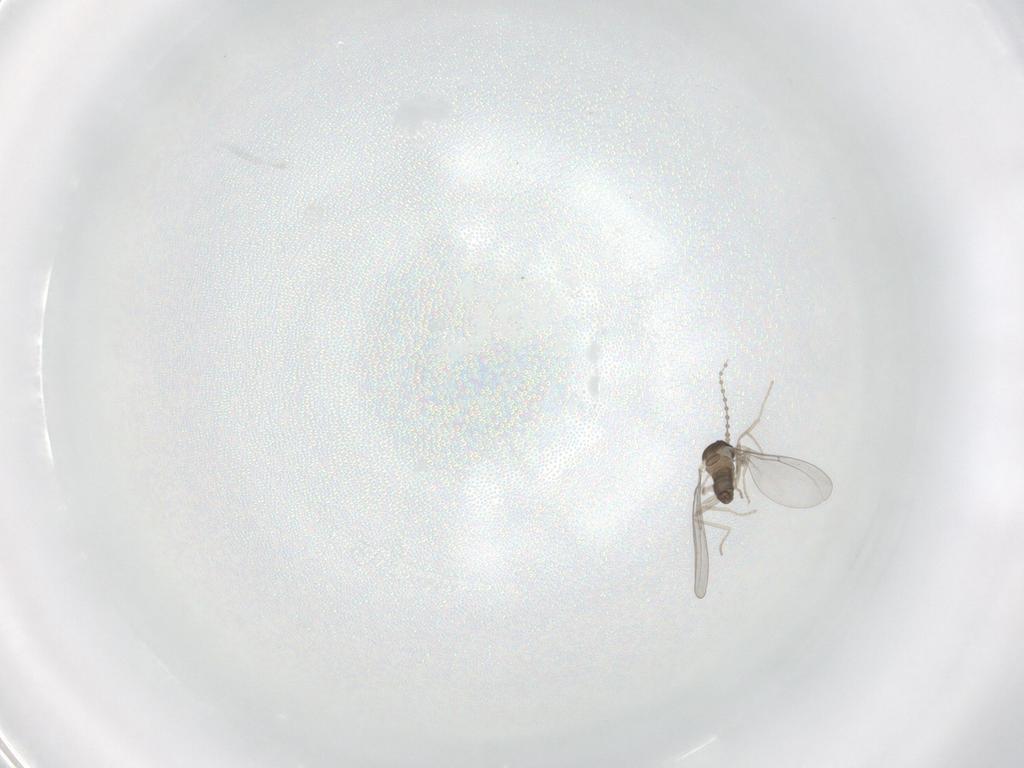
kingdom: Animalia
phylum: Arthropoda
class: Insecta
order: Diptera
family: Cecidomyiidae
